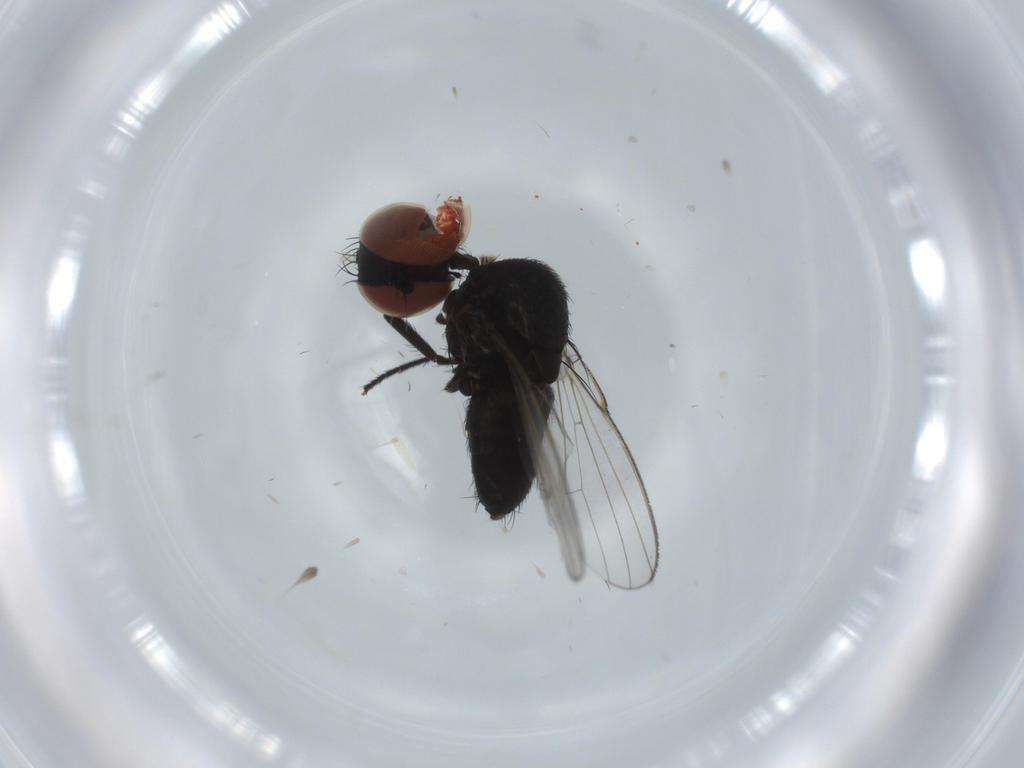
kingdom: Animalia
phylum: Arthropoda
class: Insecta
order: Diptera
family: Milichiidae
